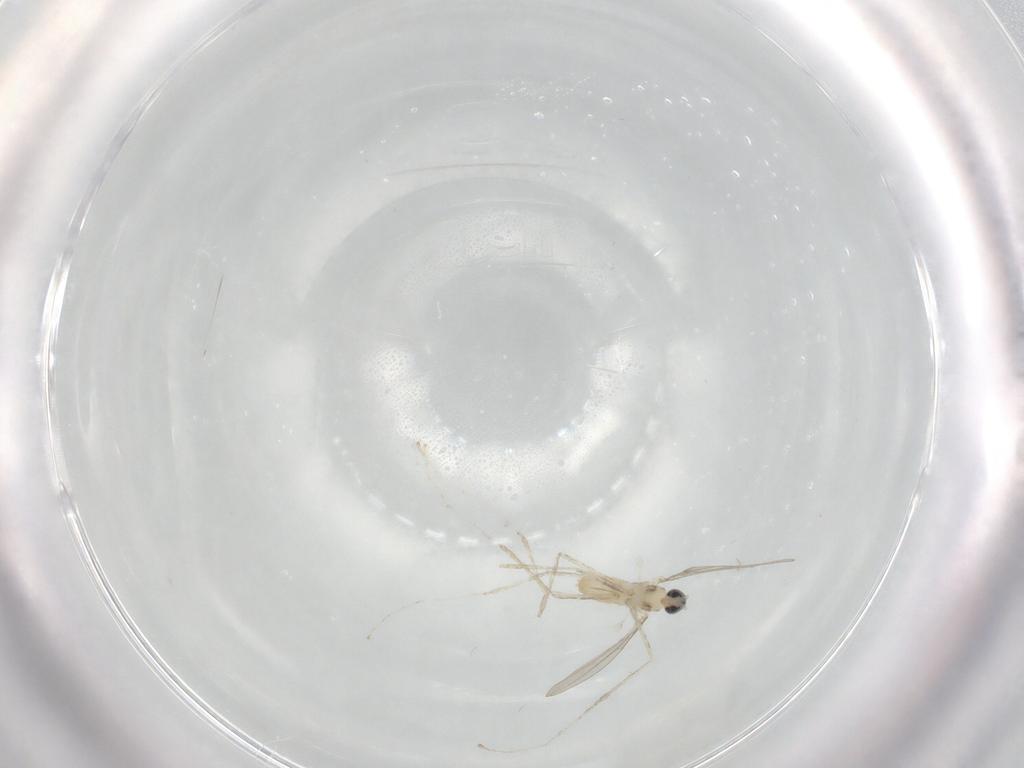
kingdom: Animalia
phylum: Arthropoda
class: Insecta
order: Diptera
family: Cecidomyiidae
